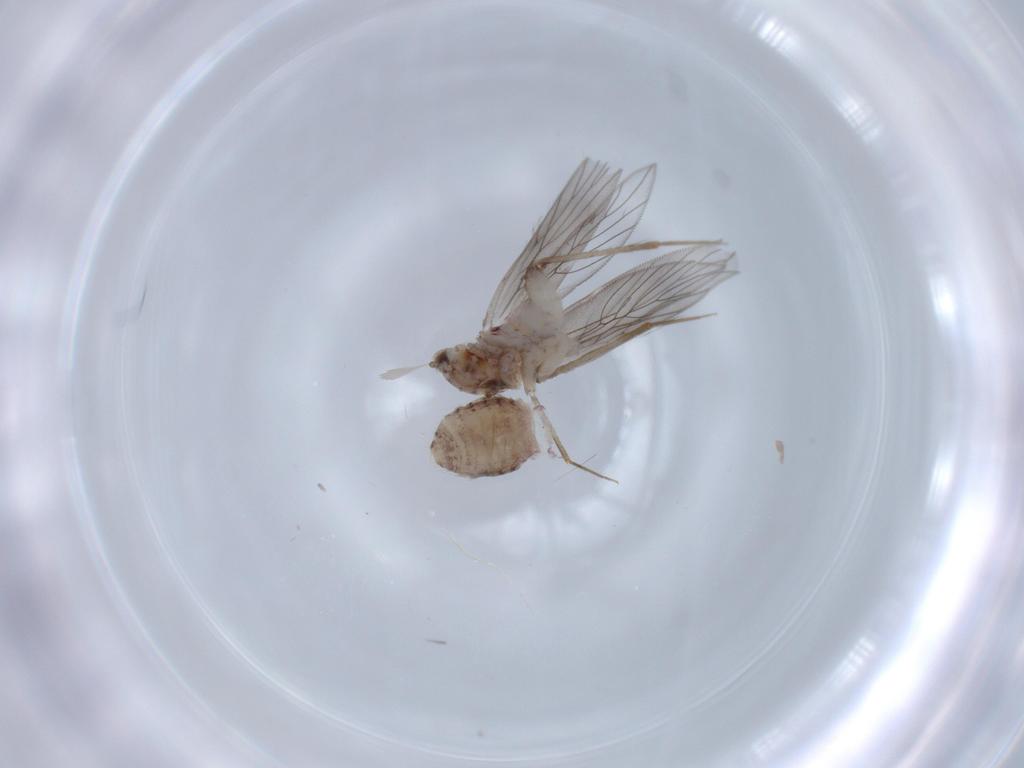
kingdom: Animalia
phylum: Arthropoda
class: Insecta
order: Psocodea
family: Lepidopsocidae
